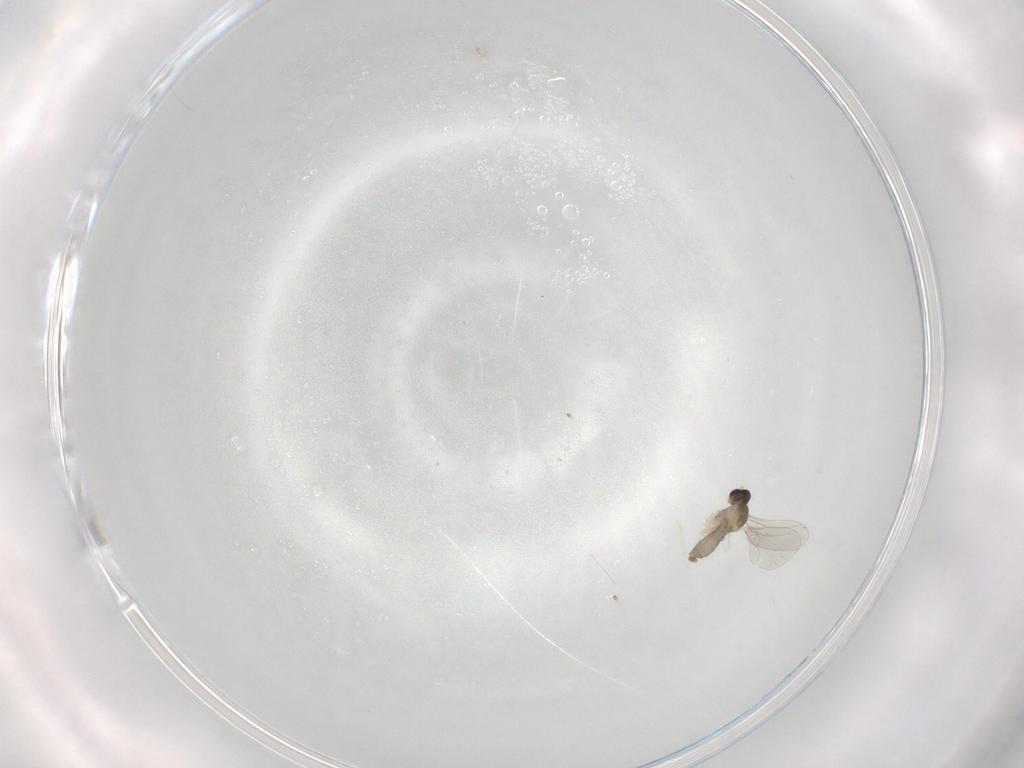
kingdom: Animalia
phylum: Arthropoda
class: Insecta
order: Diptera
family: Cecidomyiidae
